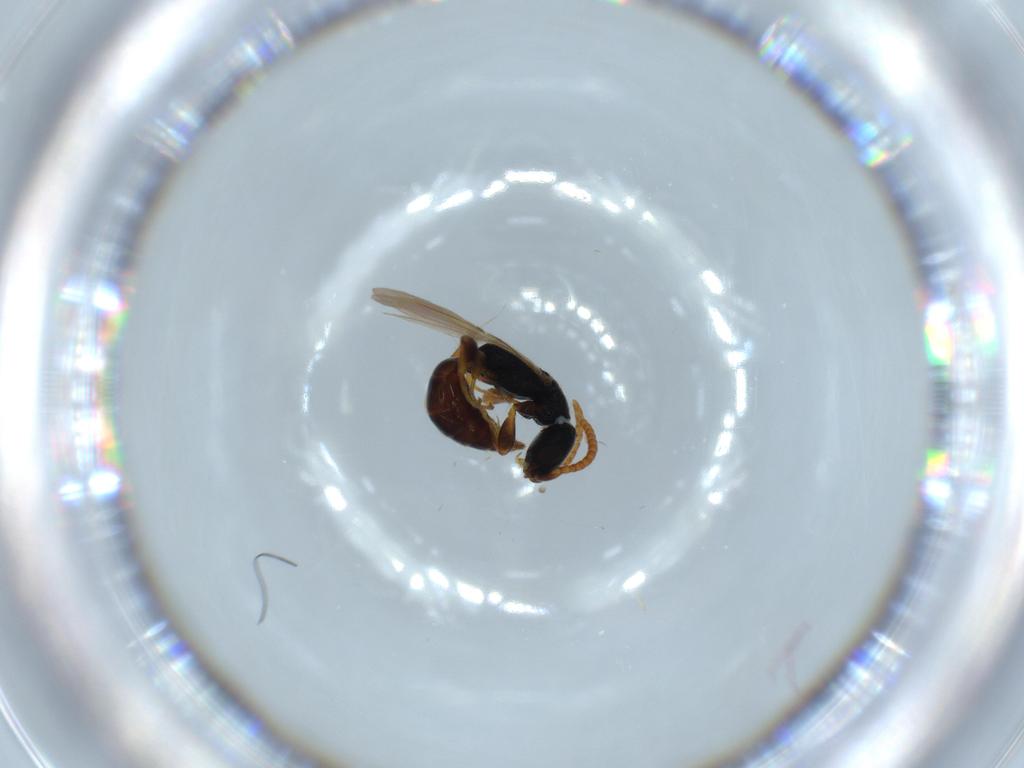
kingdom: Animalia
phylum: Arthropoda
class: Insecta
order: Hymenoptera
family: Bethylidae
